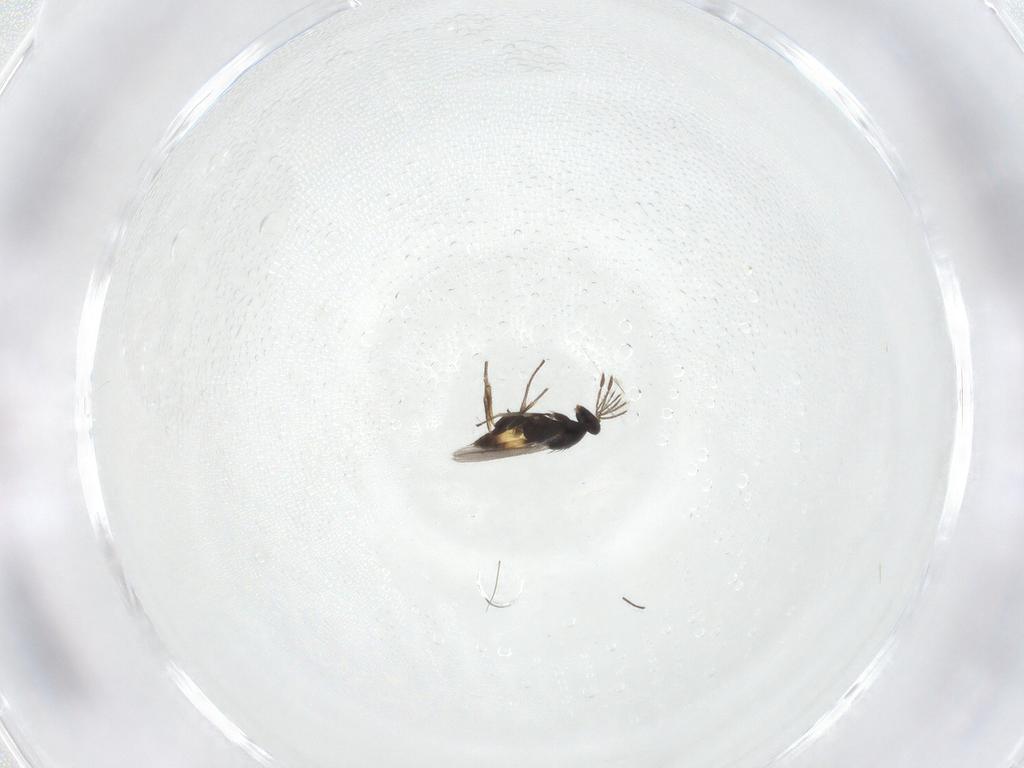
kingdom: Animalia
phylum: Arthropoda
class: Insecta
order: Hymenoptera
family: Eulophidae
